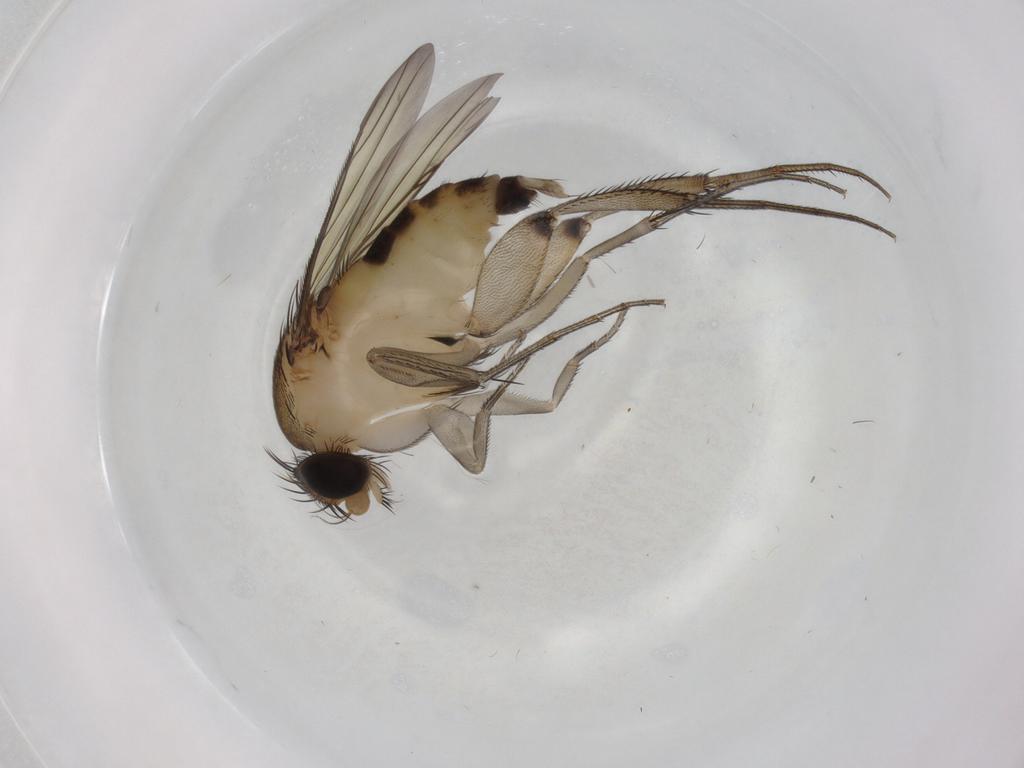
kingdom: Animalia
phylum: Arthropoda
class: Insecta
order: Diptera
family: Phoridae
